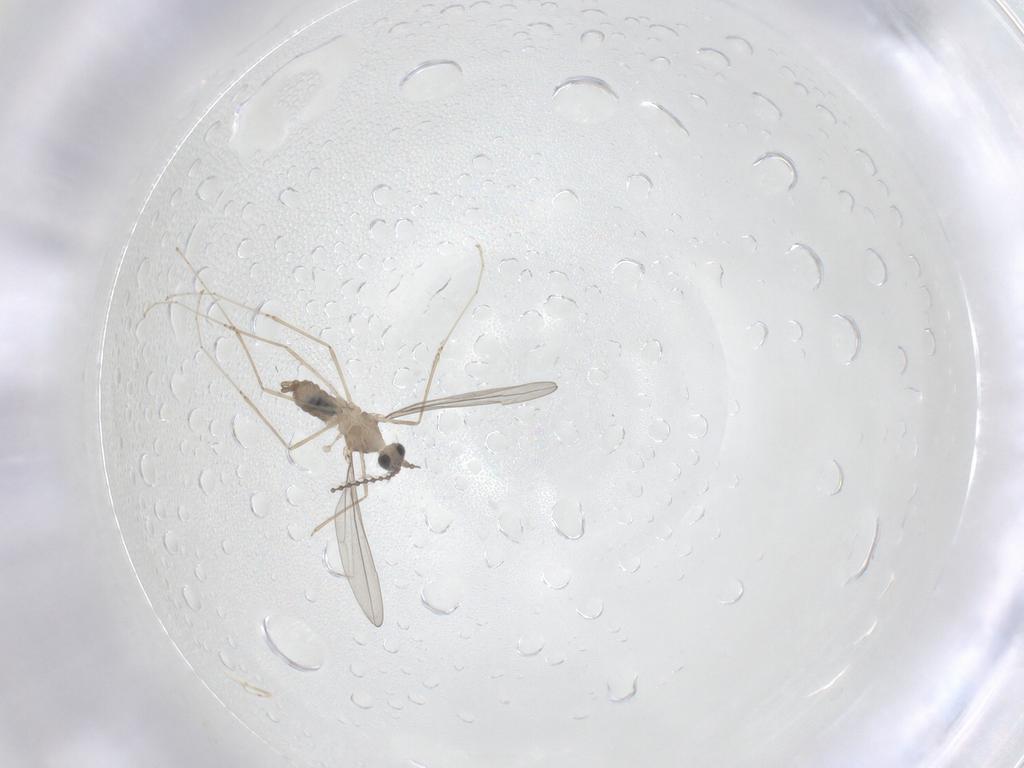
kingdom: Animalia
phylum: Arthropoda
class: Insecta
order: Diptera
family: Cecidomyiidae
